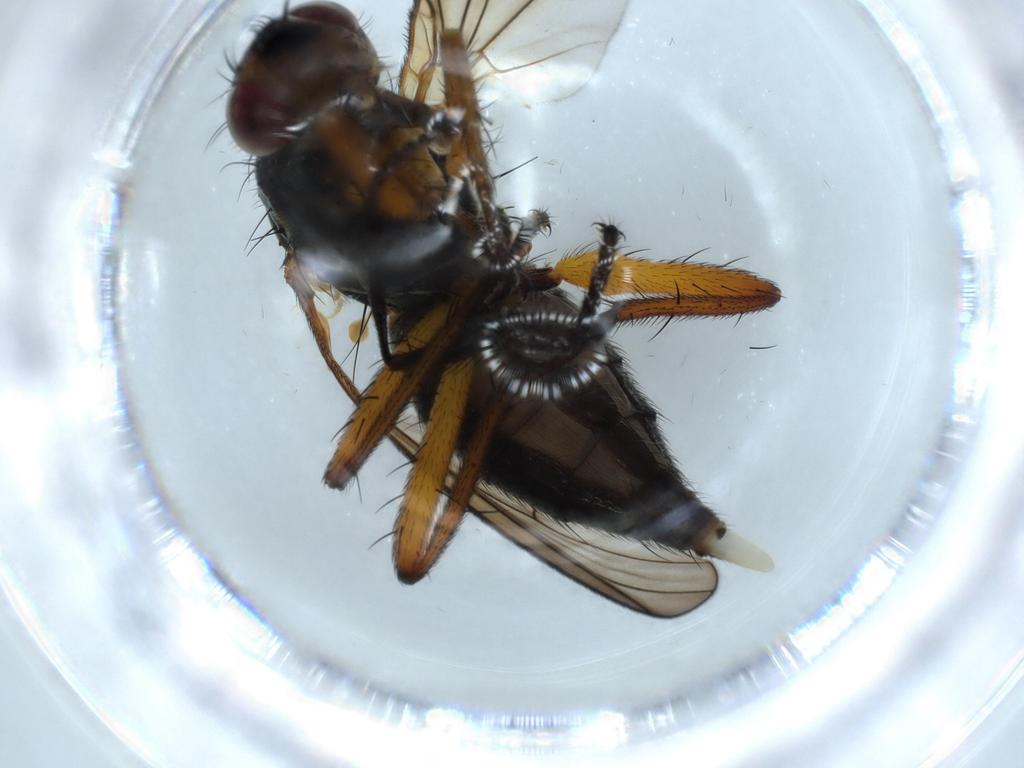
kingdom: Animalia
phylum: Arthropoda
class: Insecta
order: Diptera
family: Scathophagidae
